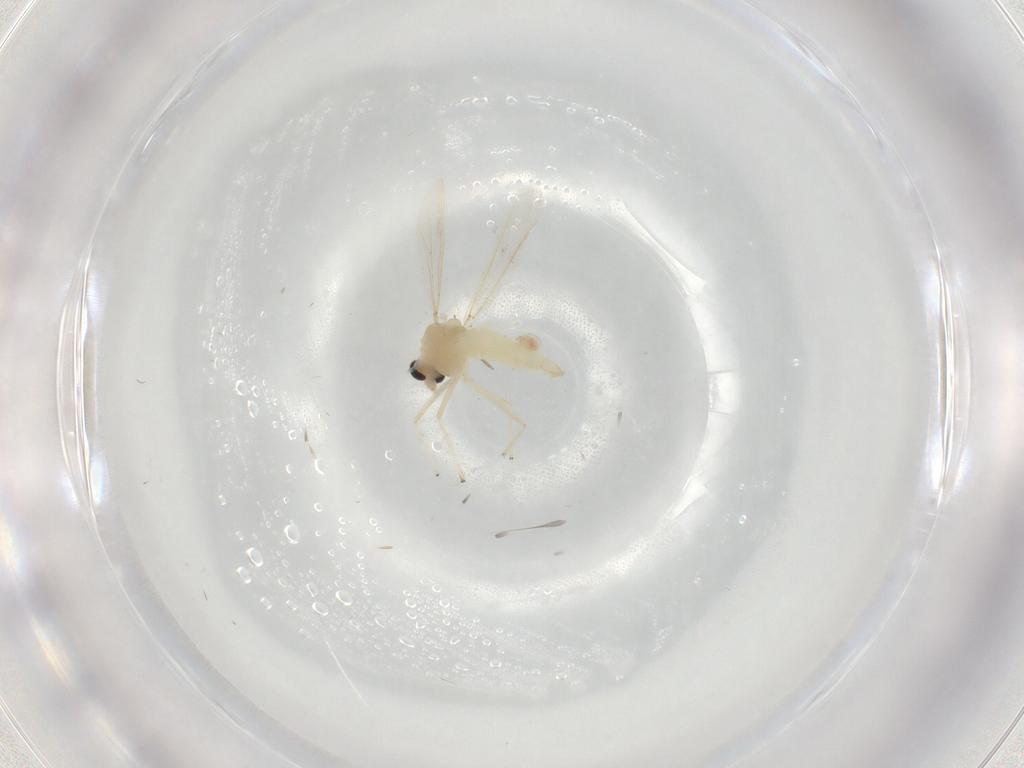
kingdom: Animalia
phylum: Arthropoda
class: Insecta
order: Diptera
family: Chironomidae
